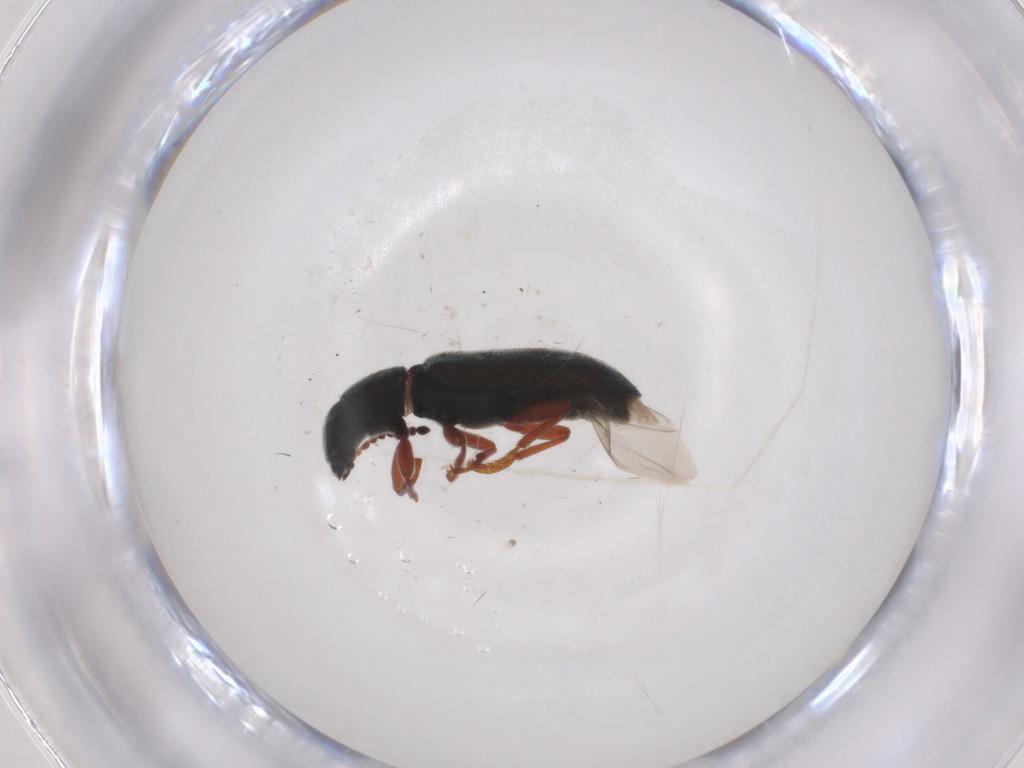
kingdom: Animalia
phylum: Arthropoda
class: Insecta
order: Coleoptera
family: Melyridae
